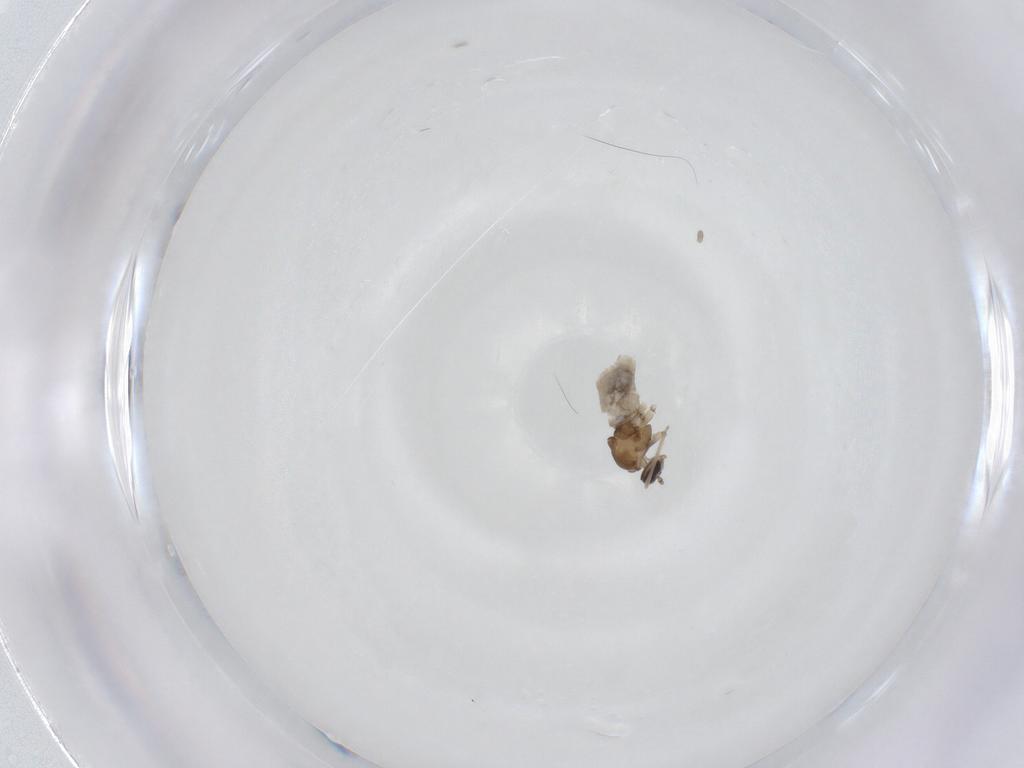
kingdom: Animalia
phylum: Arthropoda
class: Insecta
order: Diptera
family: Cecidomyiidae
